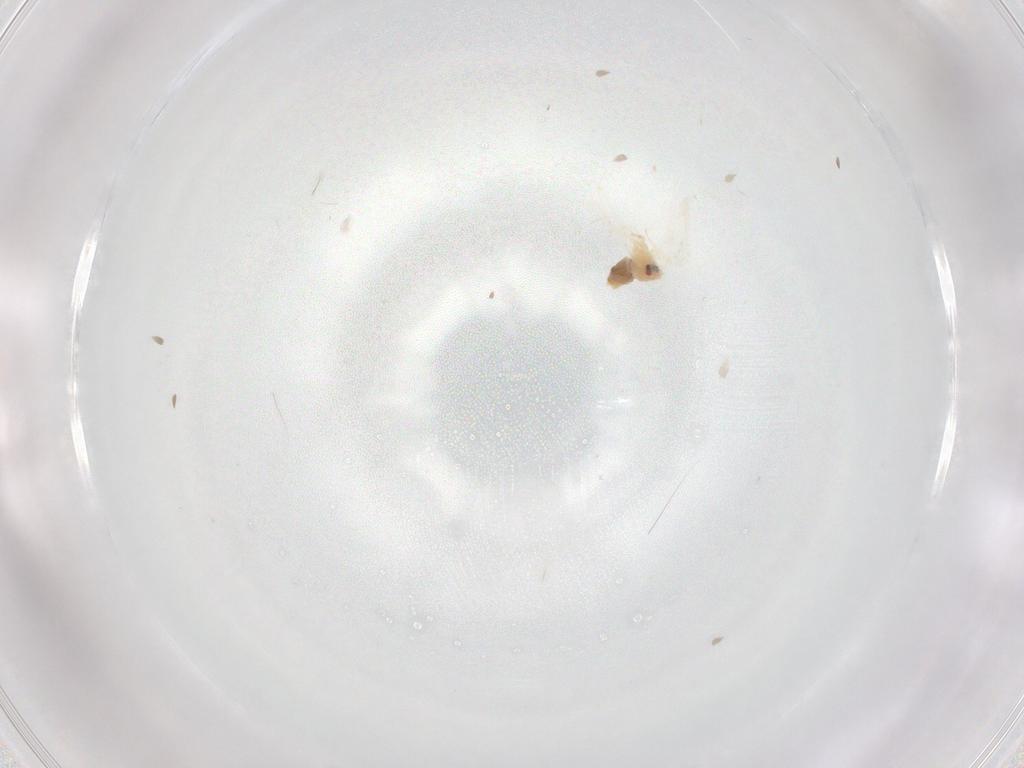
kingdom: Animalia
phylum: Arthropoda
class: Insecta
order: Hemiptera
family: Aleyrodidae
